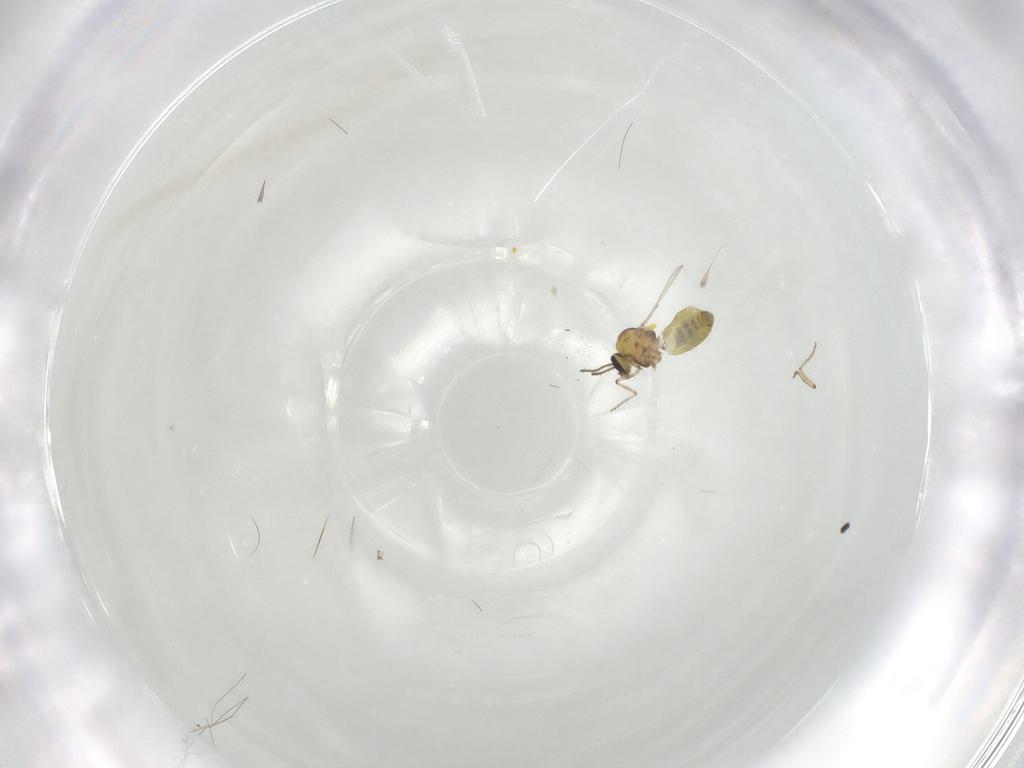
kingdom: Animalia
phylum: Arthropoda
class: Insecta
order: Diptera
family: Ceratopogonidae
